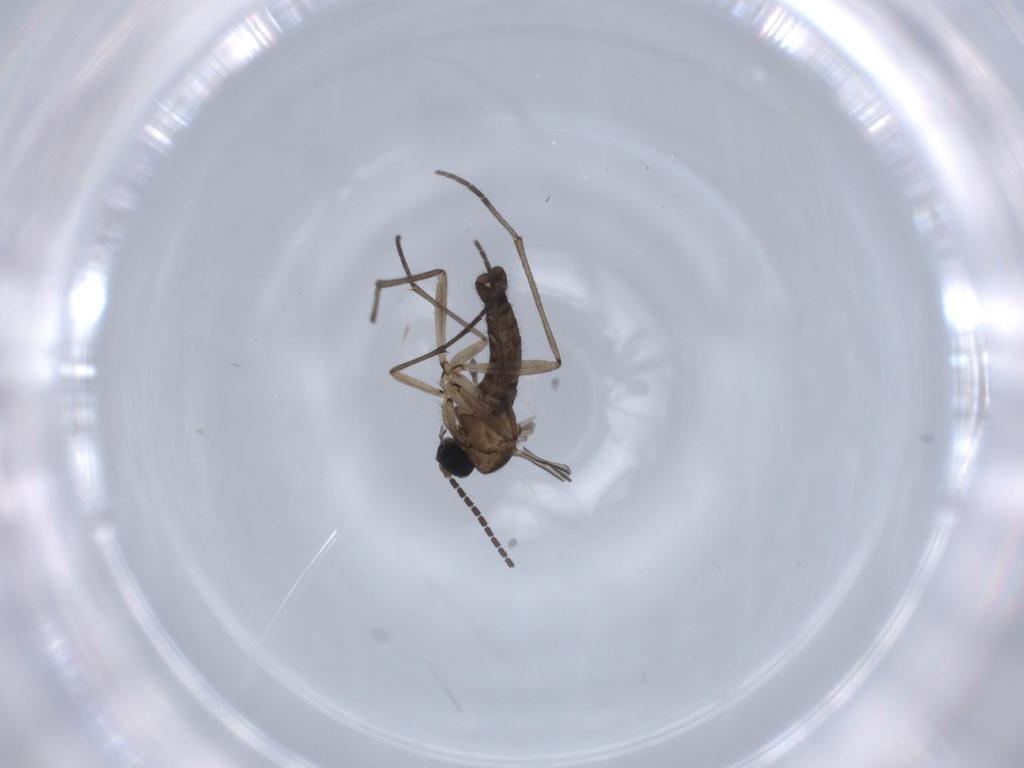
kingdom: Animalia
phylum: Arthropoda
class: Insecta
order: Diptera
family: Sciaridae
